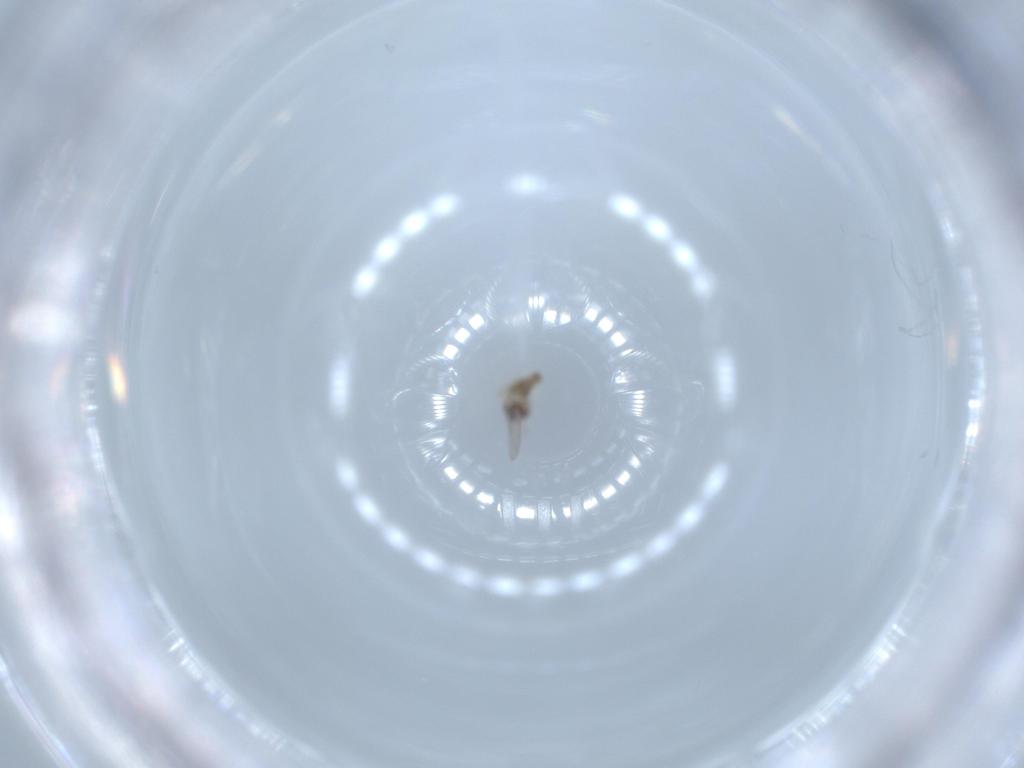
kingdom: Animalia
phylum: Arthropoda
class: Insecta
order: Diptera
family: Cecidomyiidae
